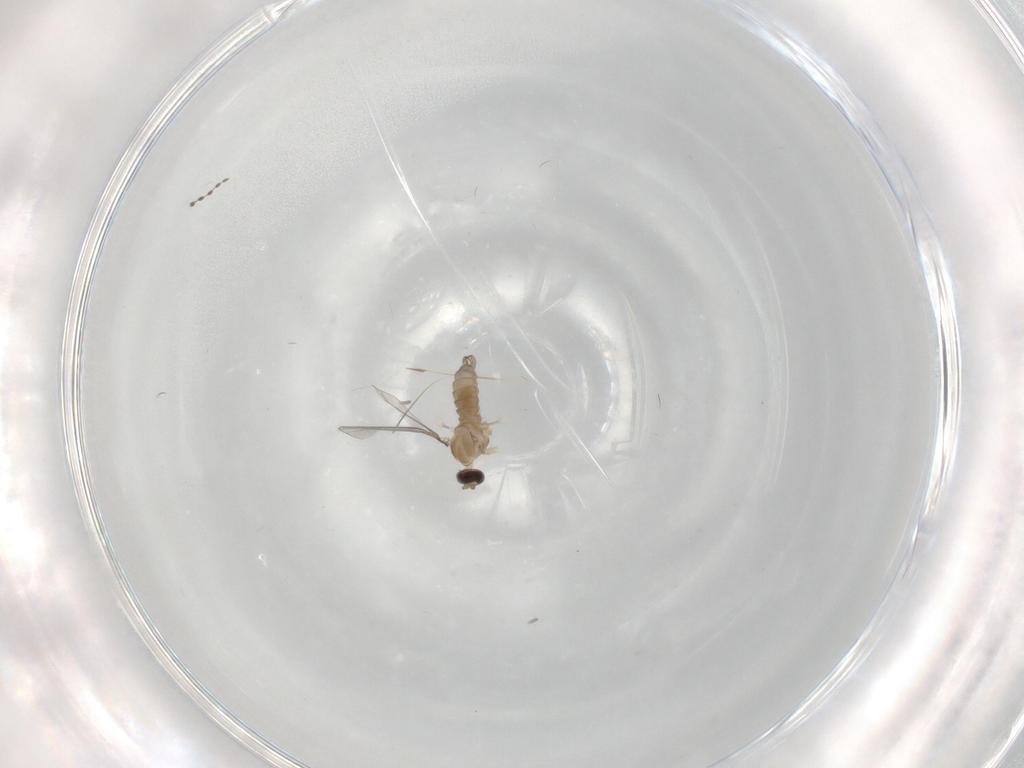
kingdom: Animalia
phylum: Arthropoda
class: Insecta
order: Diptera
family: Cecidomyiidae
